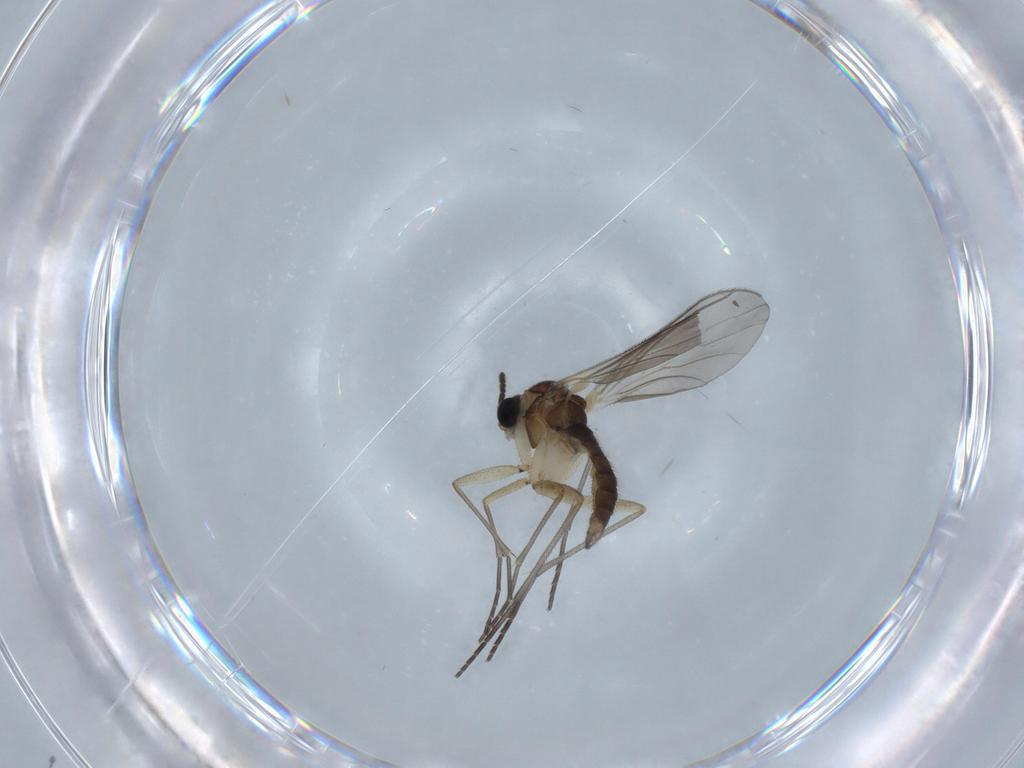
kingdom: Animalia
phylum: Arthropoda
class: Insecta
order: Diptera
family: Sciaridae
